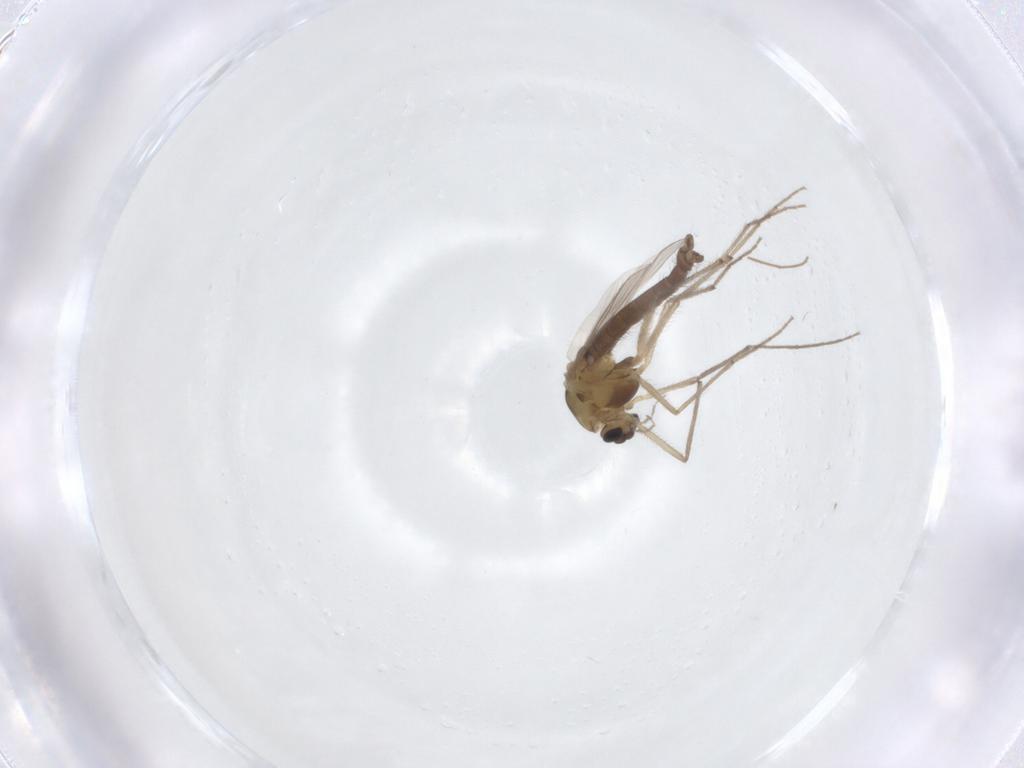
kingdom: Animalia
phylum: Arthropoda
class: Insecta
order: Diptera
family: Chironomidae
